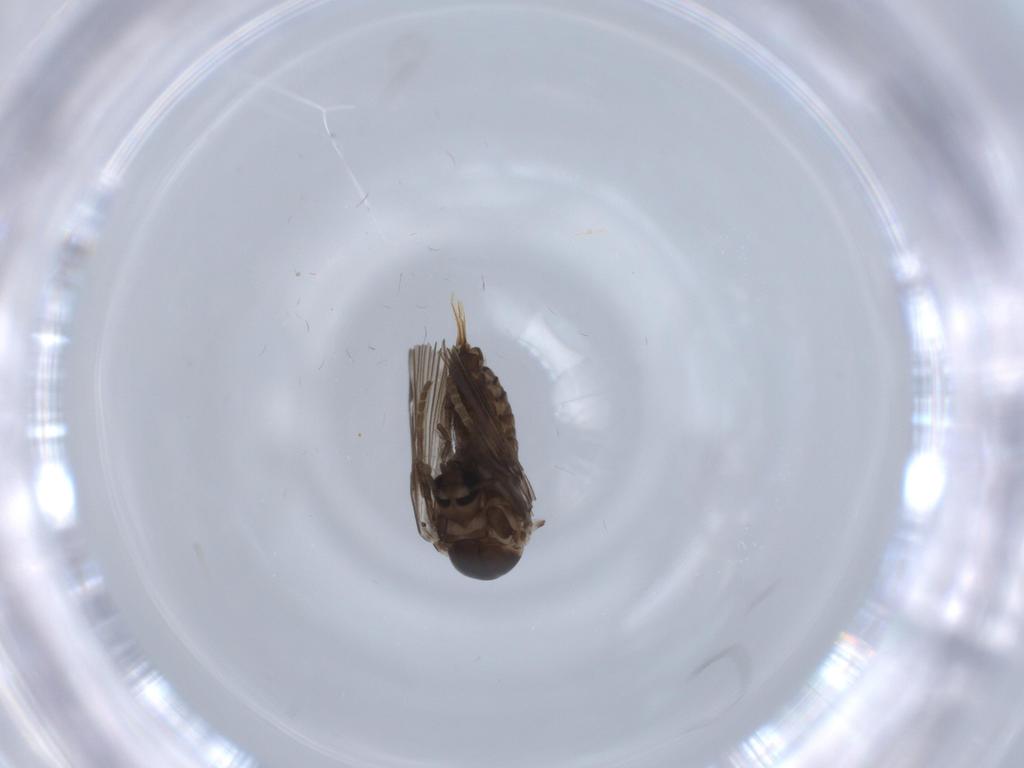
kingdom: Animalia
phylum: Arthropoda
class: Insecta
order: Diptera
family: Psychodidae
